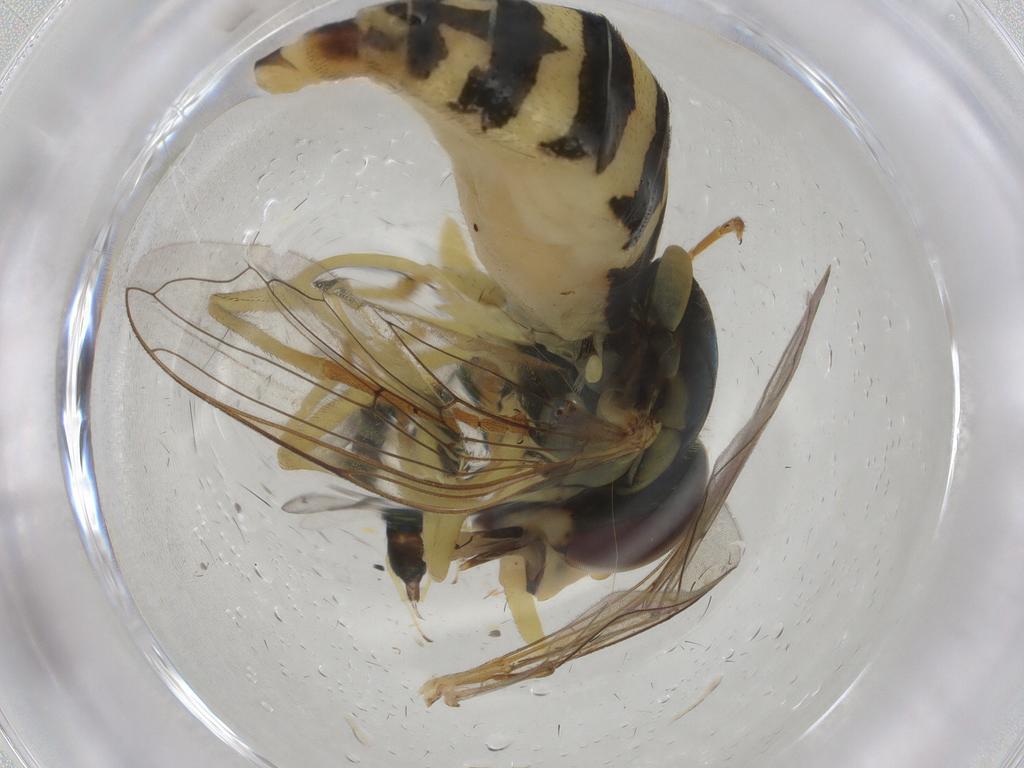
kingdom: Animalia
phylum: Arthropoda
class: Insecta
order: Diptera
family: Syrphidae
